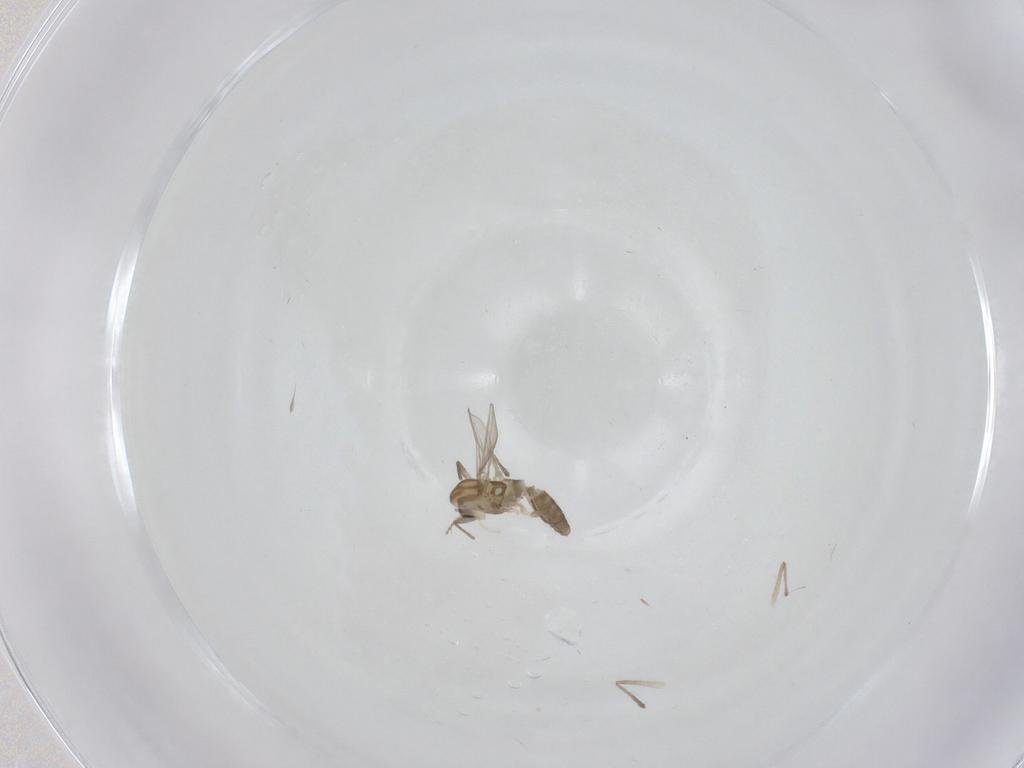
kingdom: Animalia
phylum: Arthropoda
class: Insecta
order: Diptera
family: Chironomidae
